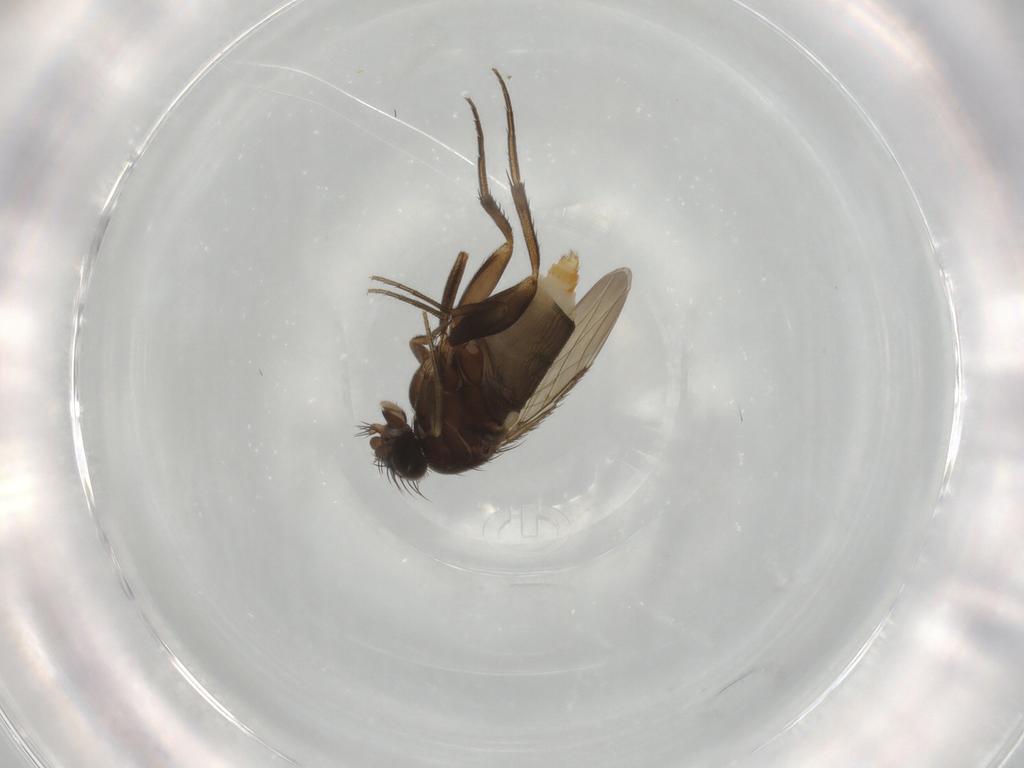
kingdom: Animalia
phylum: Arthropoda
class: Insecta
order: Diptera
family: Phoridae
